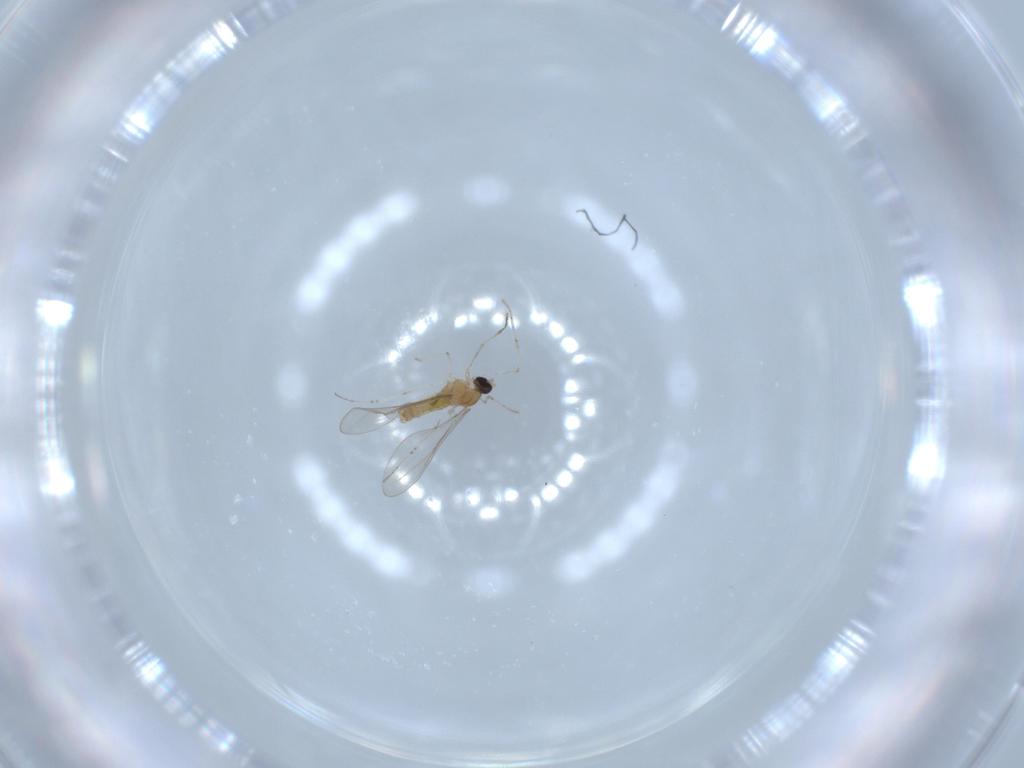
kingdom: Animalia
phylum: Arthropoda
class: Insecta
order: Diptera
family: Cecidomyiidae
